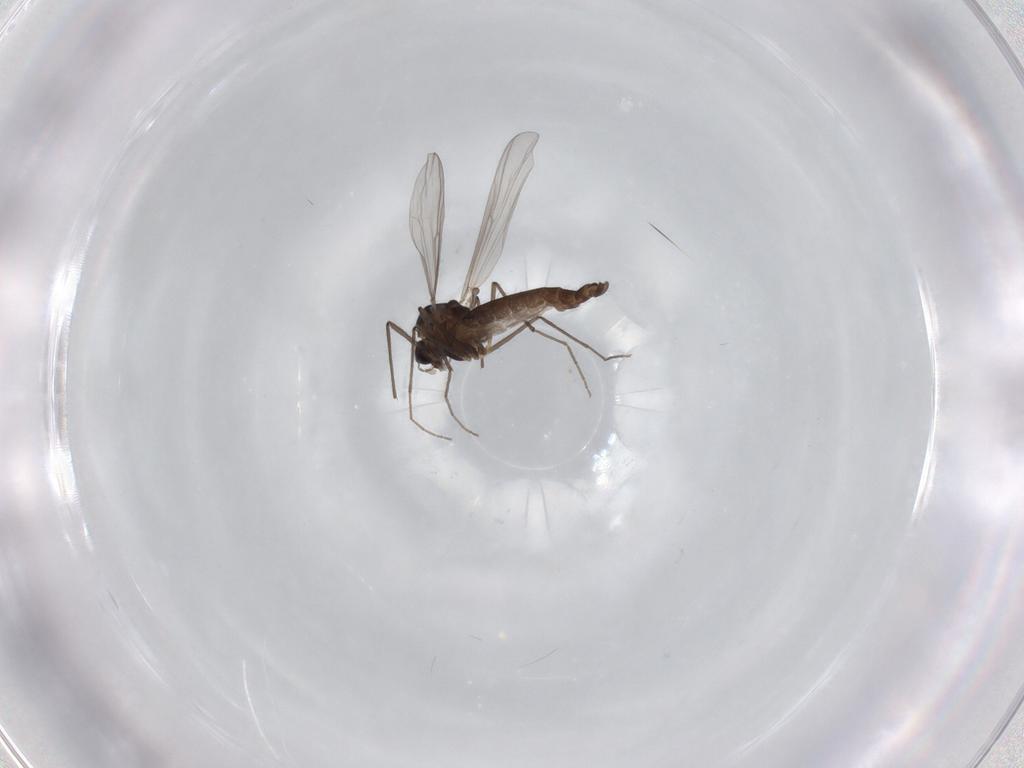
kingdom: Animalia
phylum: Arthropoda
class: Insecta
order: Diptera
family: Chironomidae
